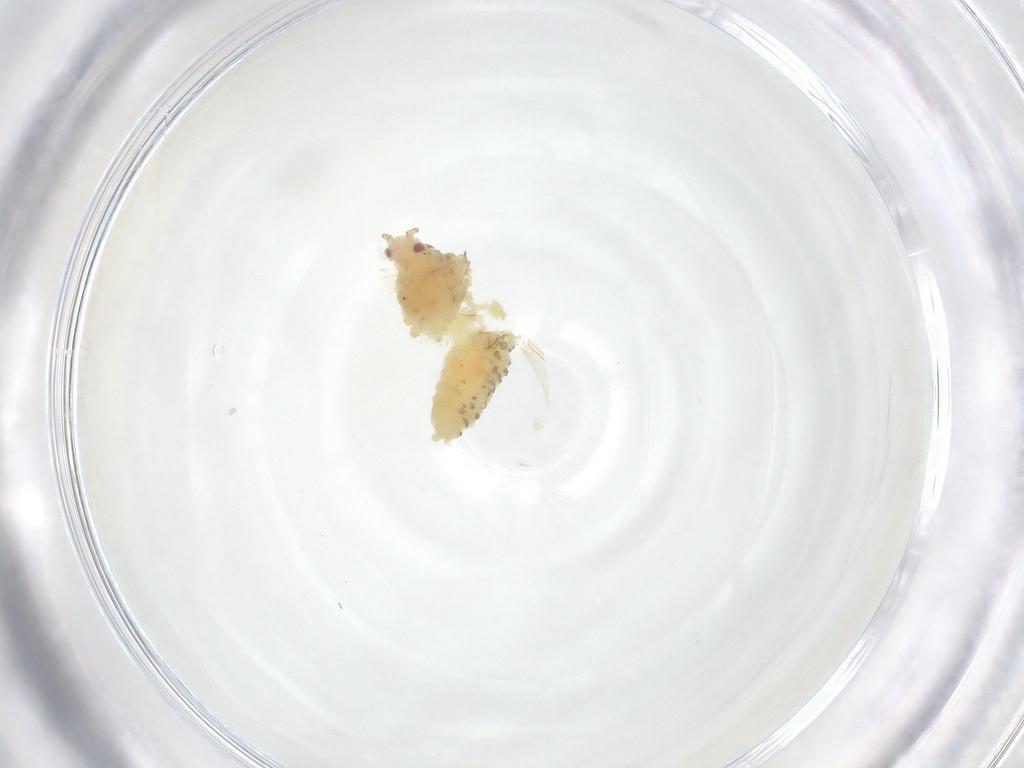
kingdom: Animalia
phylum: Arthropoda
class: Insecta
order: Hemiptera
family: Aphididae
